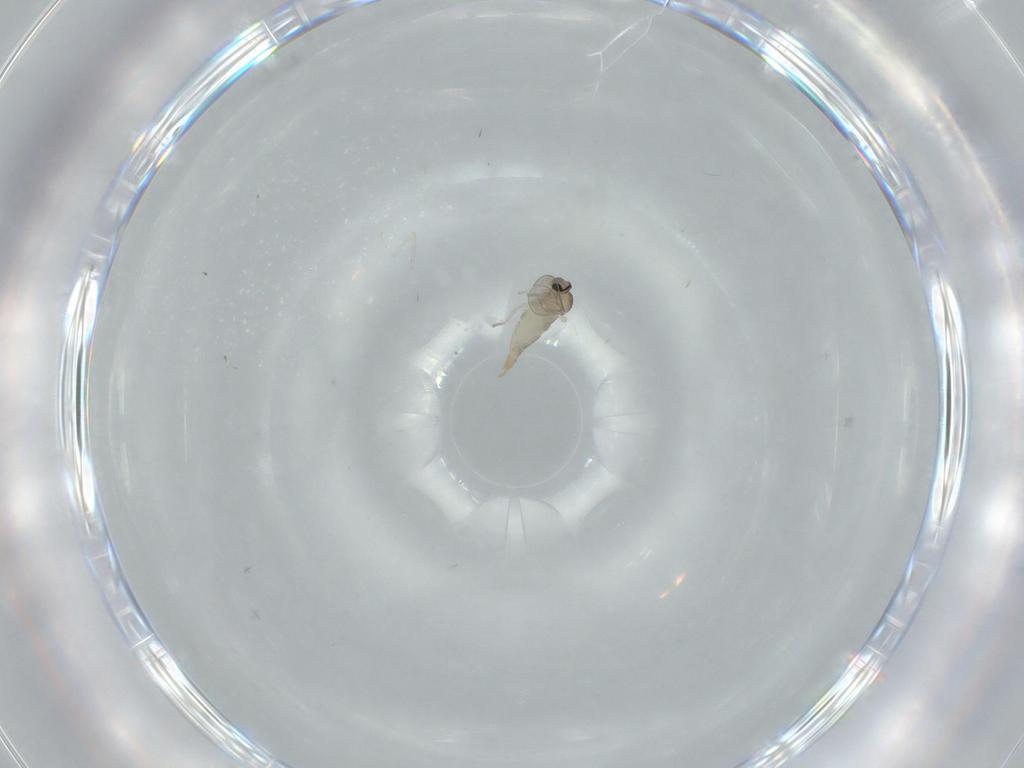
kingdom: Animalia
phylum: Arthropoda
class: Insecta
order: Diptera
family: Cecidomyiidae
